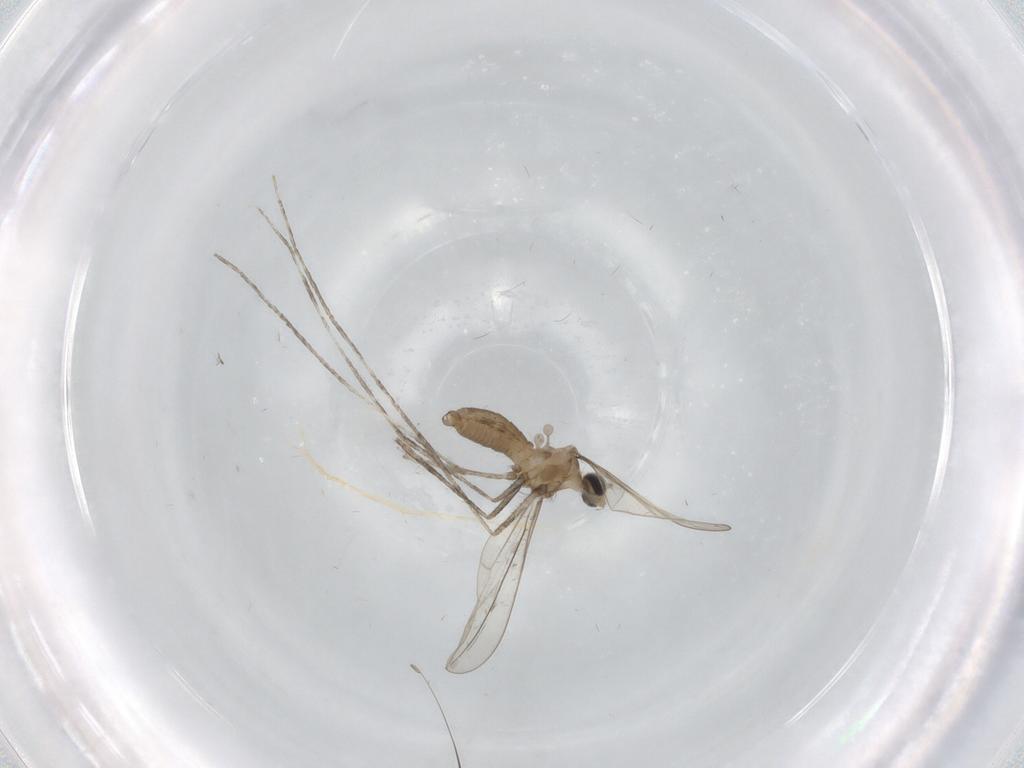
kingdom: Animalia
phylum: Arthropoda
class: Insecta
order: Diptera
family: Cecidomyiidae
